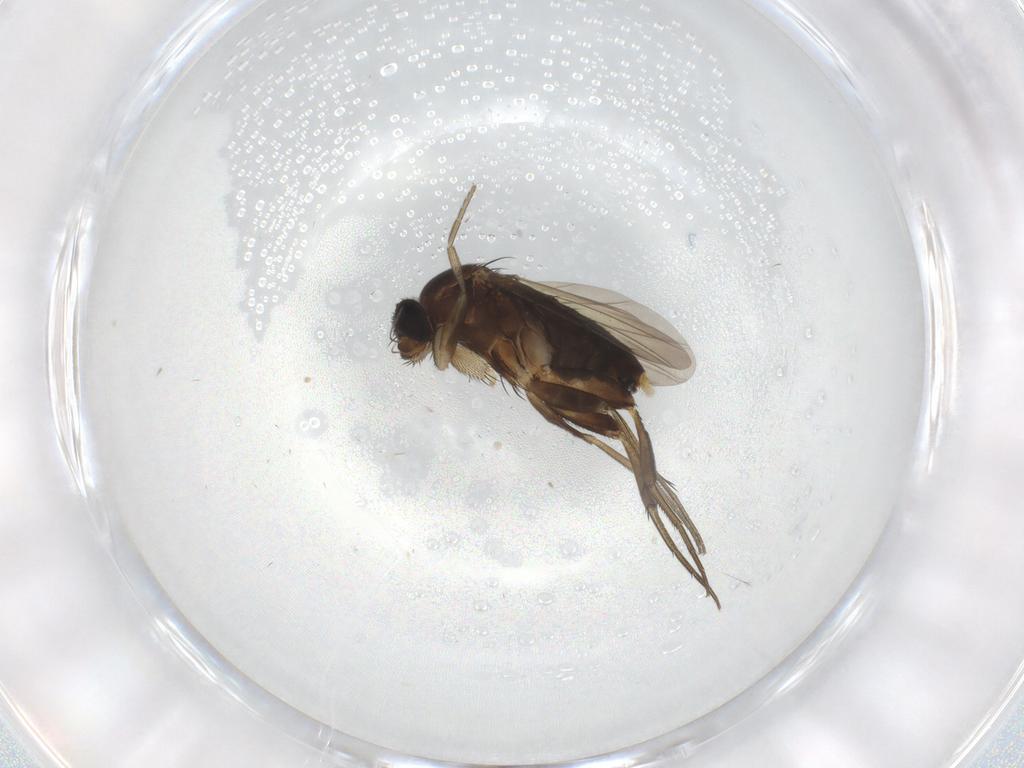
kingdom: Animalia
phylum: Arthropoda
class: Insecta
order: Diptera
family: Phoridae
